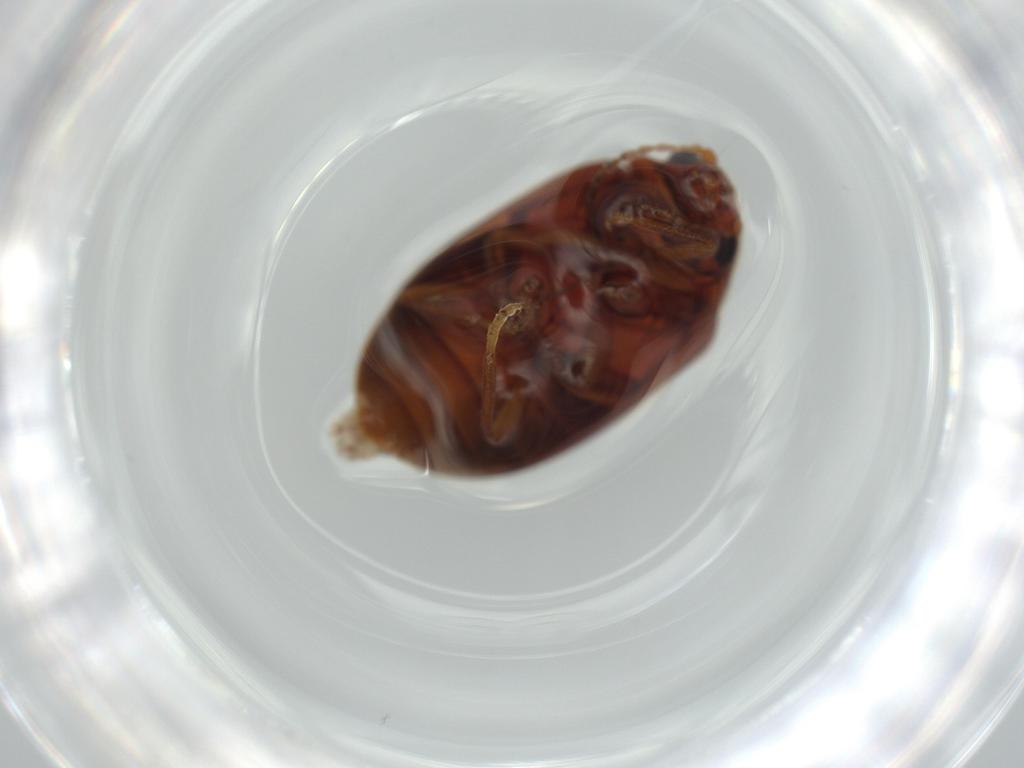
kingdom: Animalia
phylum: Arthropoda
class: Insecta
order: Coleoptera
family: Scirtidae
